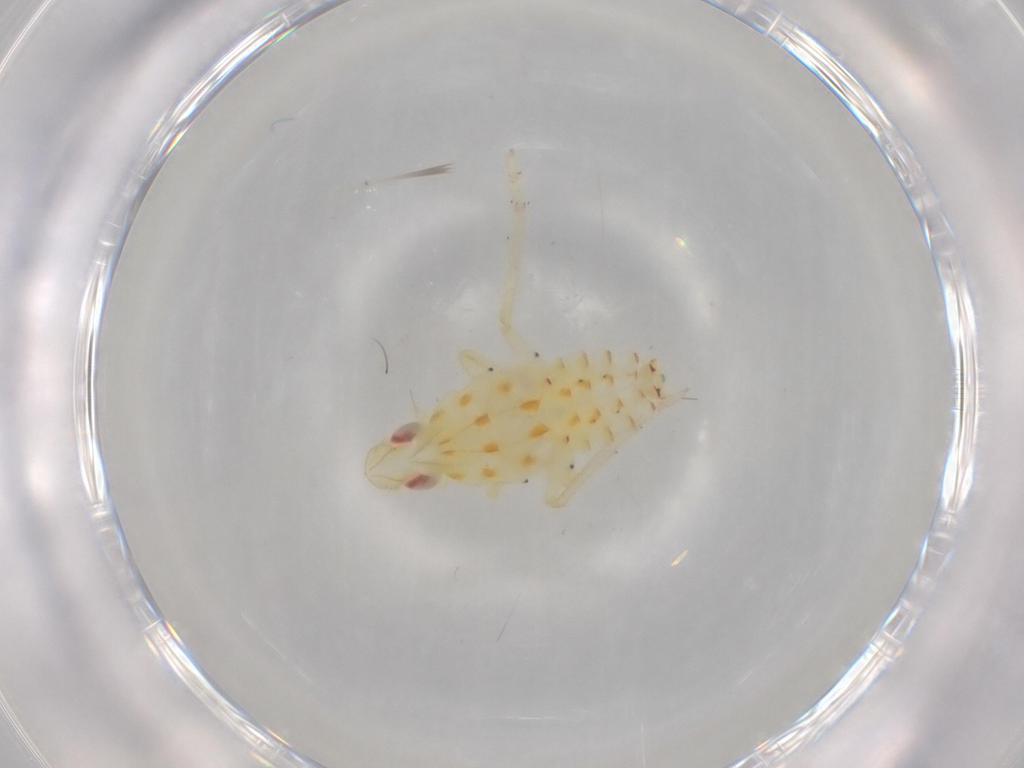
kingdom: Animalia
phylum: Arthropoda
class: Insecta
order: Hemiptera
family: Tropiduchidae
